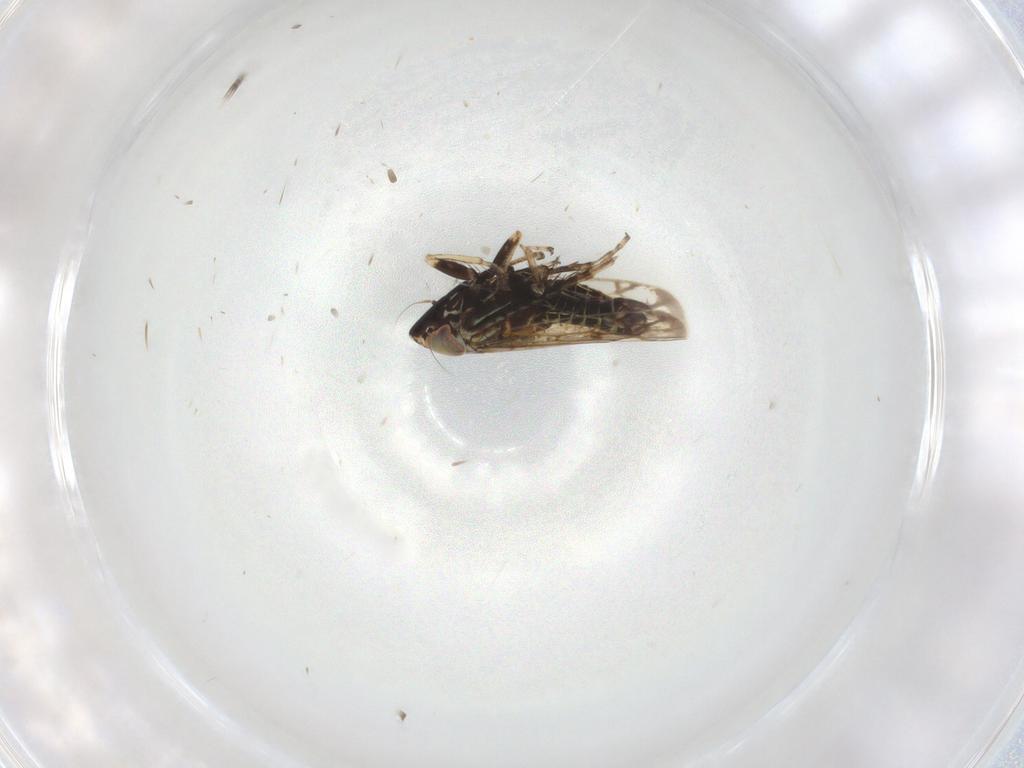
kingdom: Animalia
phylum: Arthropoda
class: Insecta
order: Hemiptera
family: Cicadellidae
